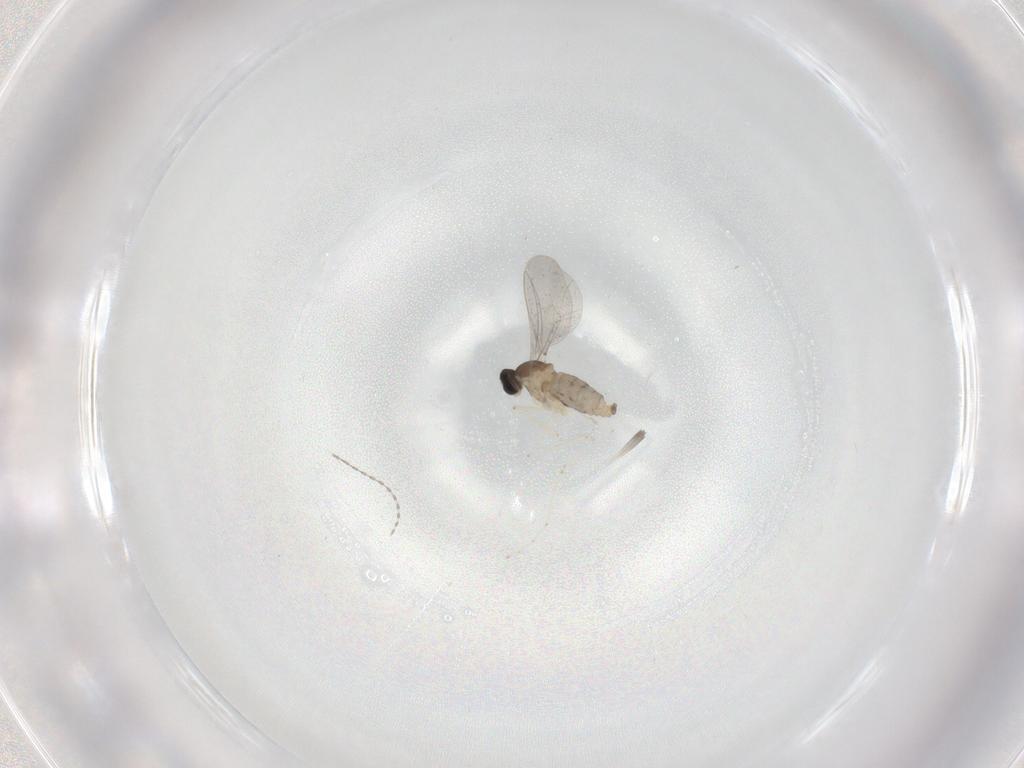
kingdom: Animalia
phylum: Arthropoda
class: Insecta
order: Diptera
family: Cecidomyiidae
